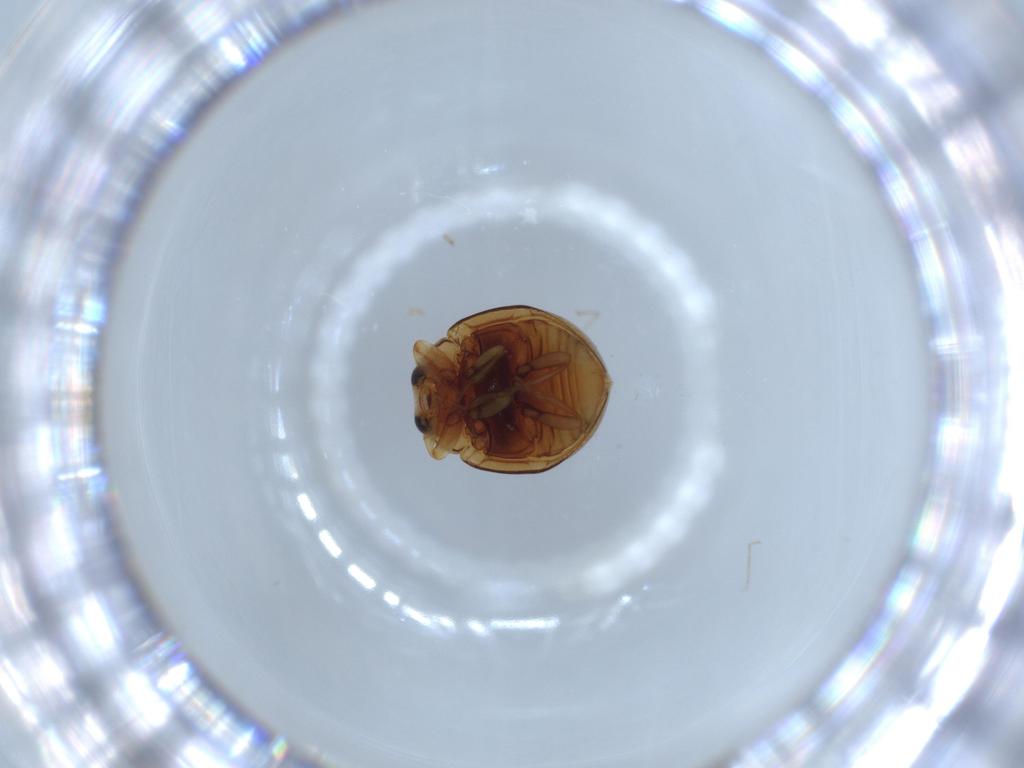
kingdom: Animalia
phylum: Arthropoda
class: Insecta
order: Coleoptera
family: Coccinellidae
